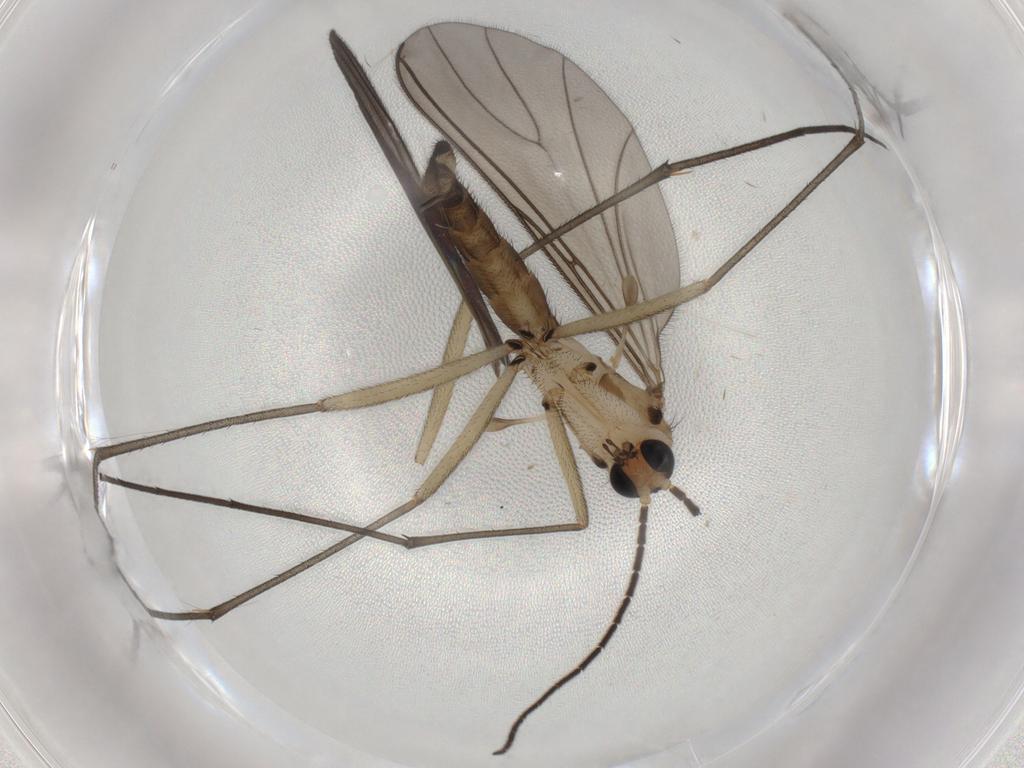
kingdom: Animalia
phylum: Arthropoda
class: Insecta
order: Diptera
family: Sciaridae
